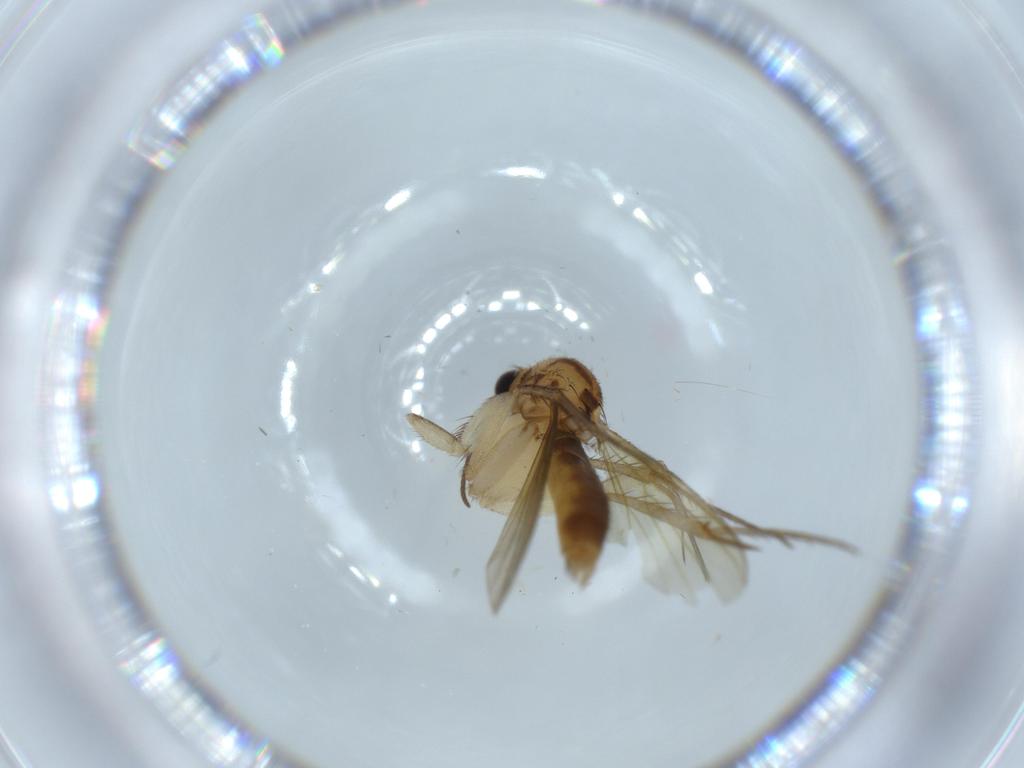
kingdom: Animalia
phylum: Arthropoda
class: Insecta
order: Diptera
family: Mycetophilidae
